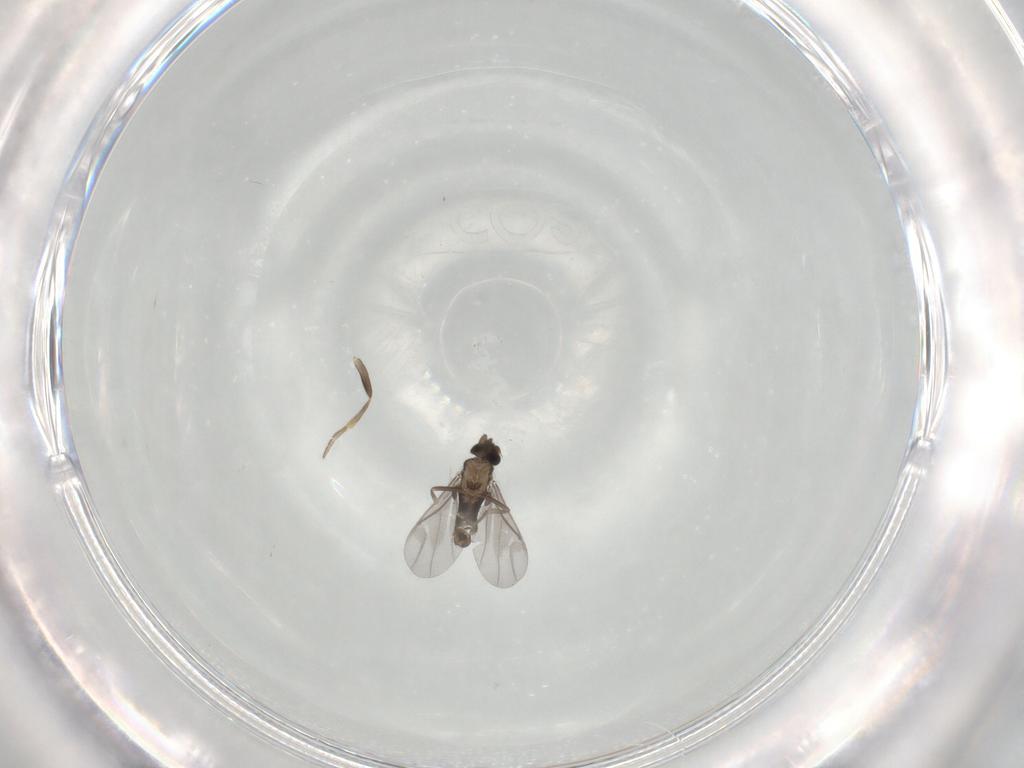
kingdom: Animalia
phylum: Arthropoda
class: Insecta
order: Diptera
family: Cecidomyiidae
